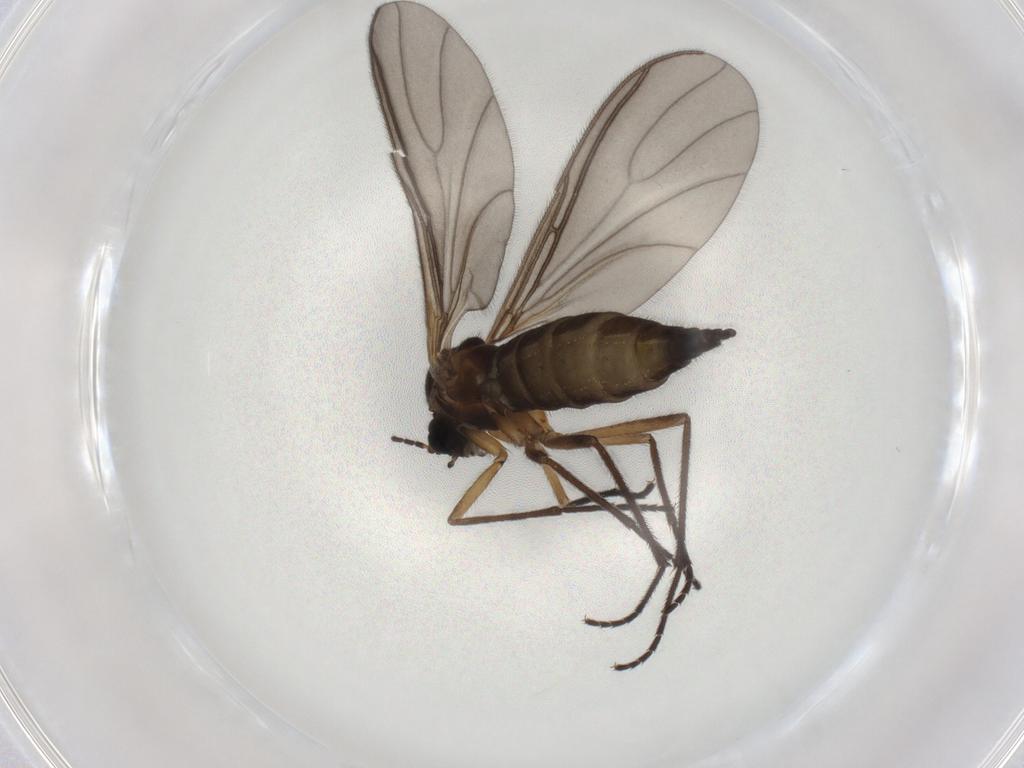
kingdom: Animalia
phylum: Arthropoda
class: Insecta
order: Diptera
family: Sciaridae
